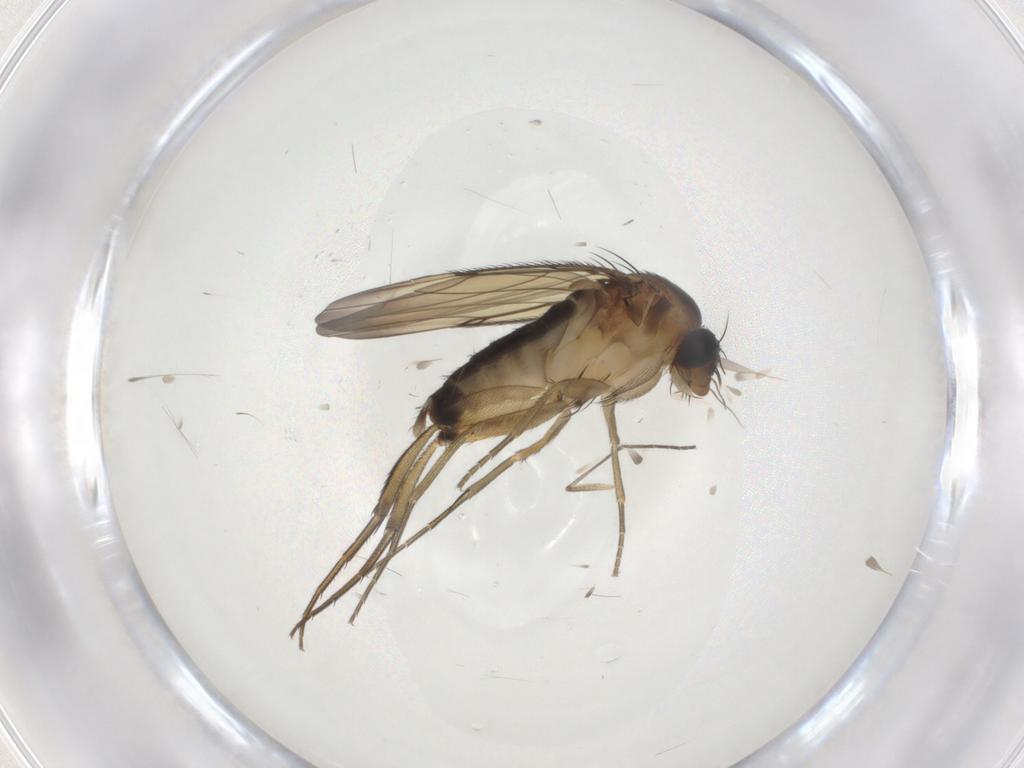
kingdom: Animalia
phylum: Arthropoda
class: Insecta
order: Diptera
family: Phoridae
